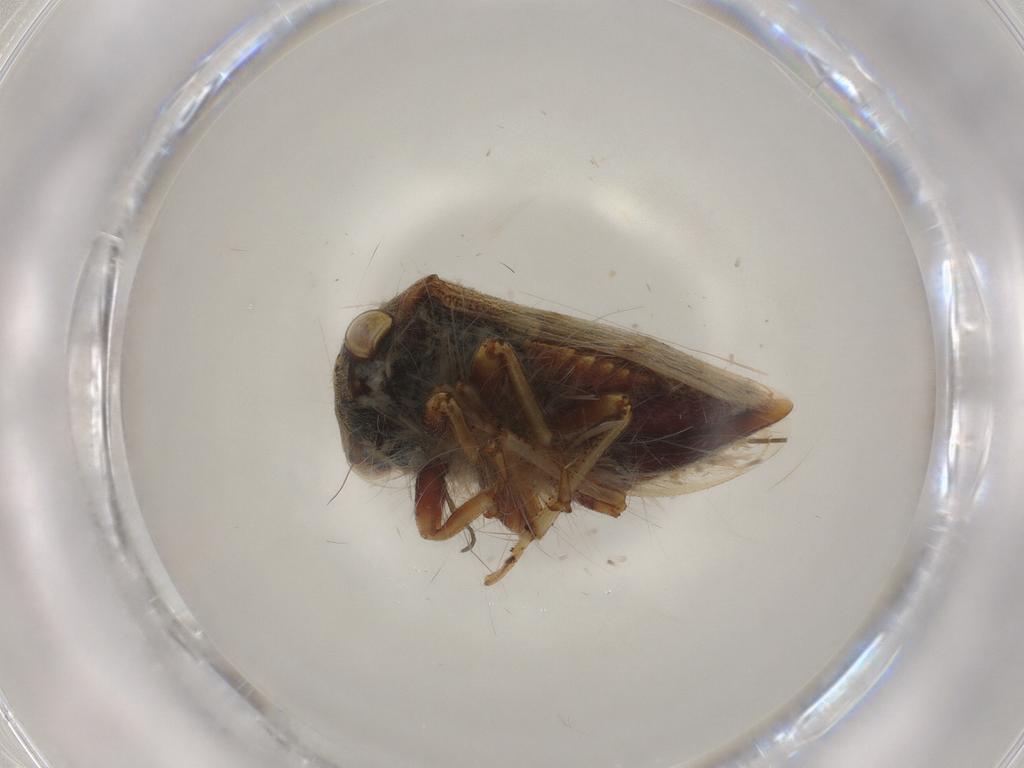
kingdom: Animalia
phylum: Arthropoda
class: Insecta
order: Hemiptera
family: Membracidae
